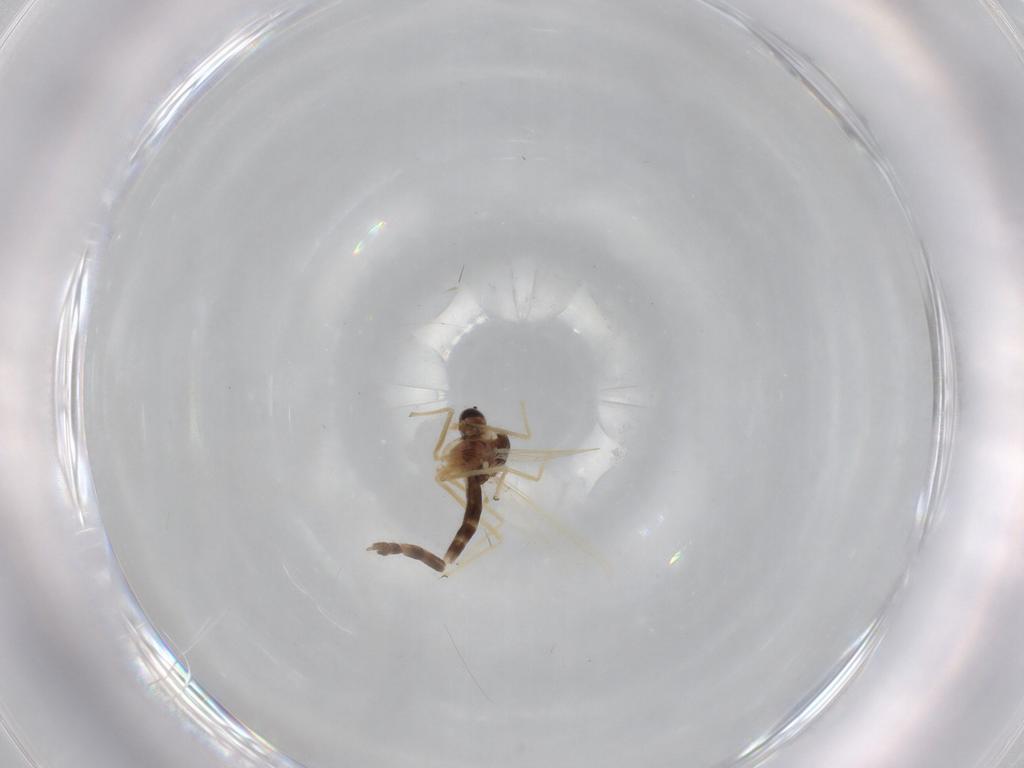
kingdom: Animalia
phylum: Arthropoda
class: Insecta
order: Diptera
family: Chironomidae
